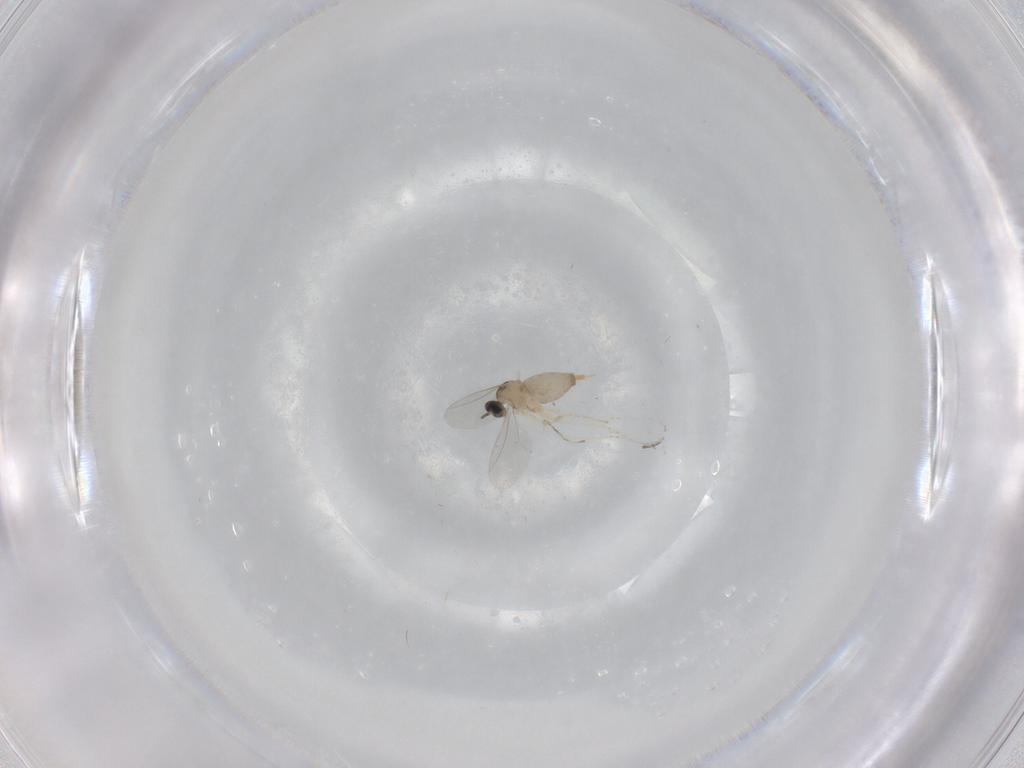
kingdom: Animalia
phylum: Arthropoda
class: Insecta
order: Diptera
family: Cecidomyiidae
